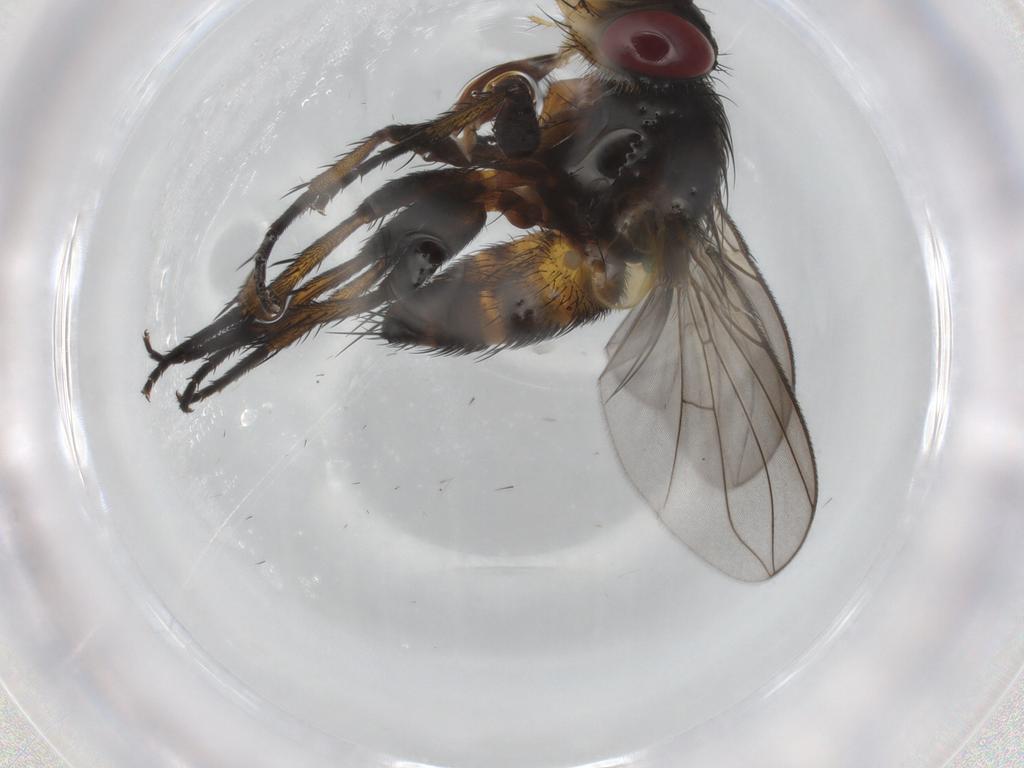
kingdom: Animalia
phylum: Arthropoda
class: Insecta
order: Diptera
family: Tachinidae
